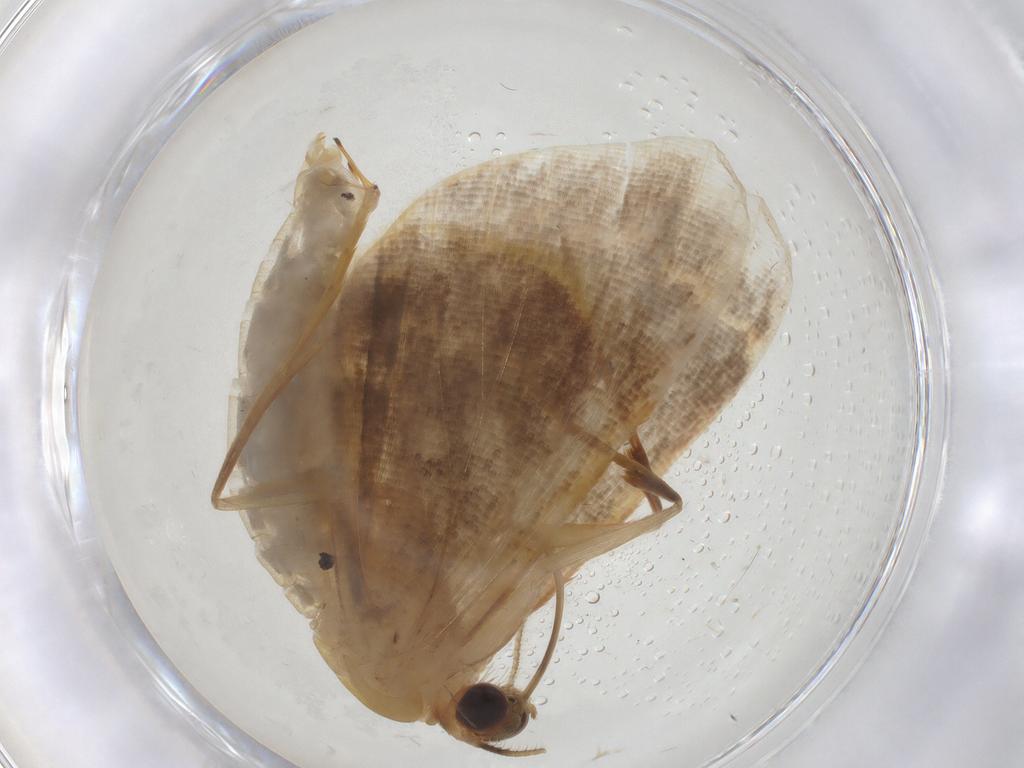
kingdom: Animalia
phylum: Arthropoda
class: Insecta
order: Lepidoptera
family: Geometridae
